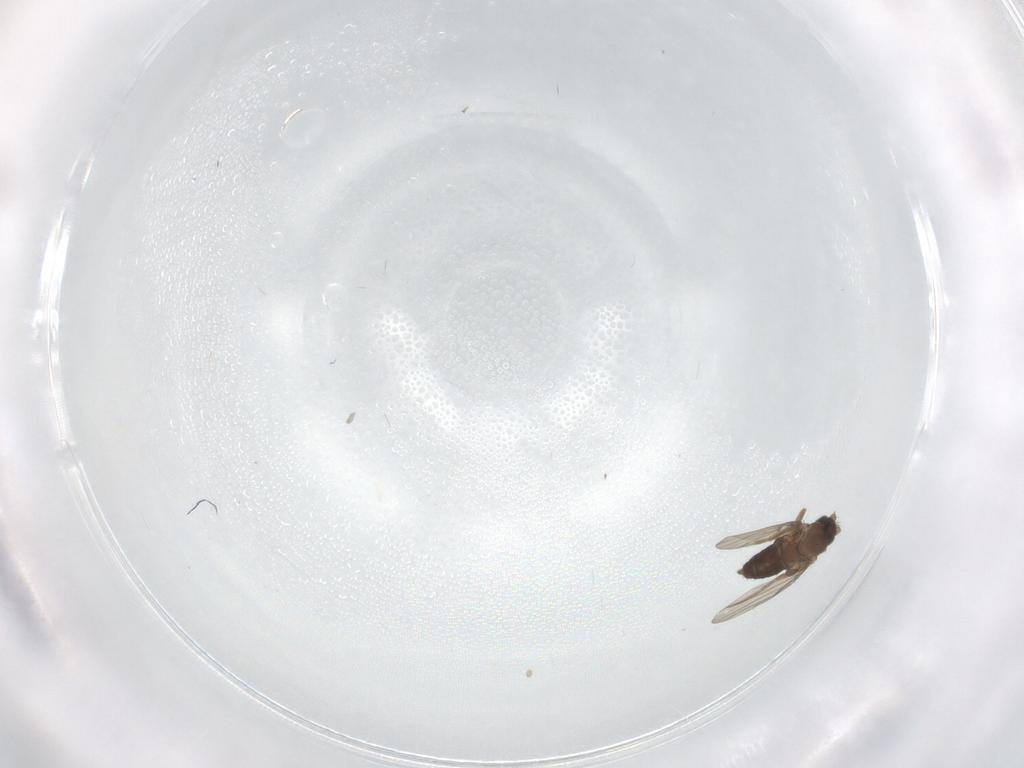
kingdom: Animalia
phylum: Arthropoda
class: Insecta
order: Diptera
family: Phoridae
